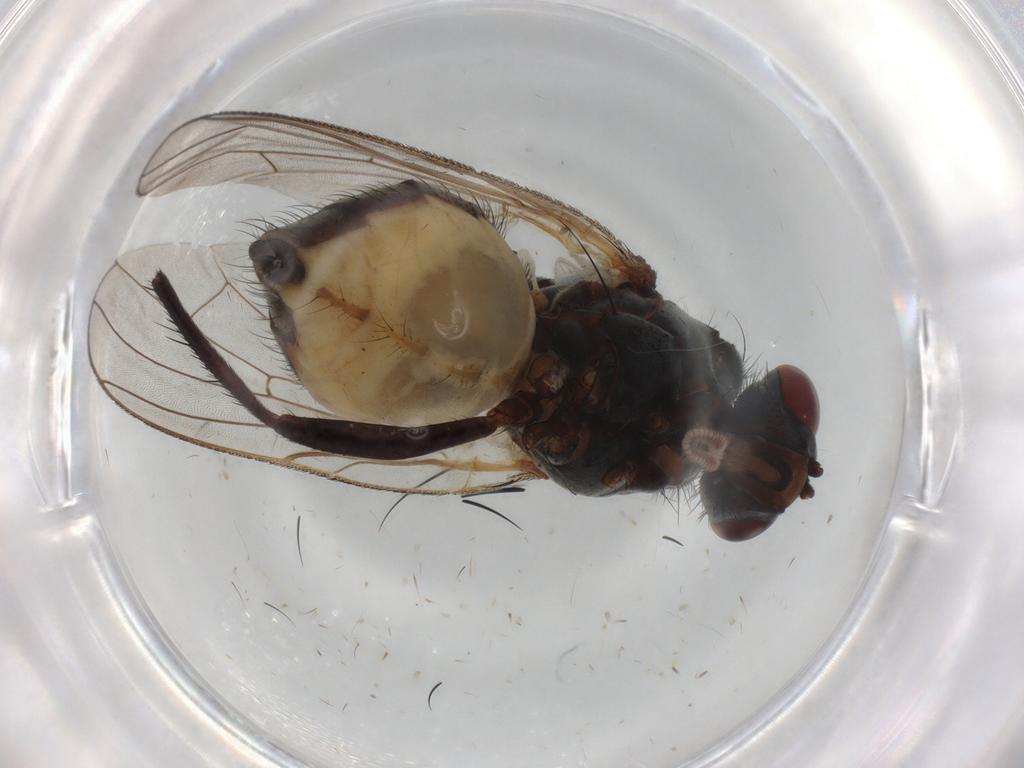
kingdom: Animalia
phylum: Arthropoda
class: Insecta
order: Diptera
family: Anthomyiidae
